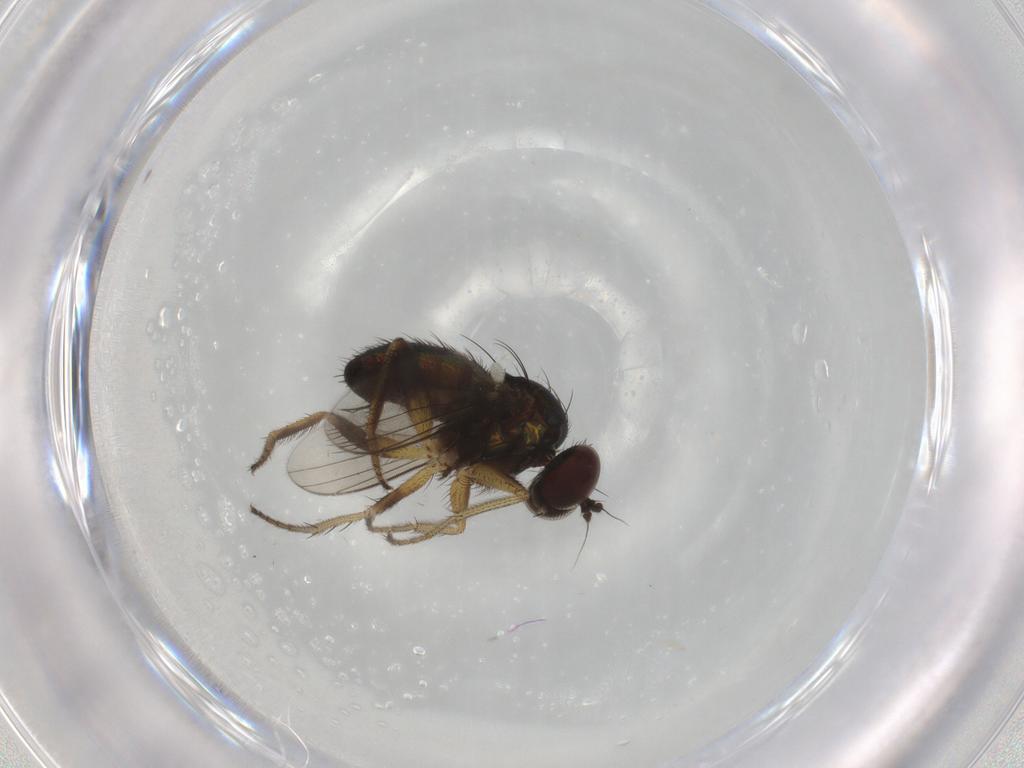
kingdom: Animalia
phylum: Arthropoda
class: Insecta
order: Diptera
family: Dolichopodidae
